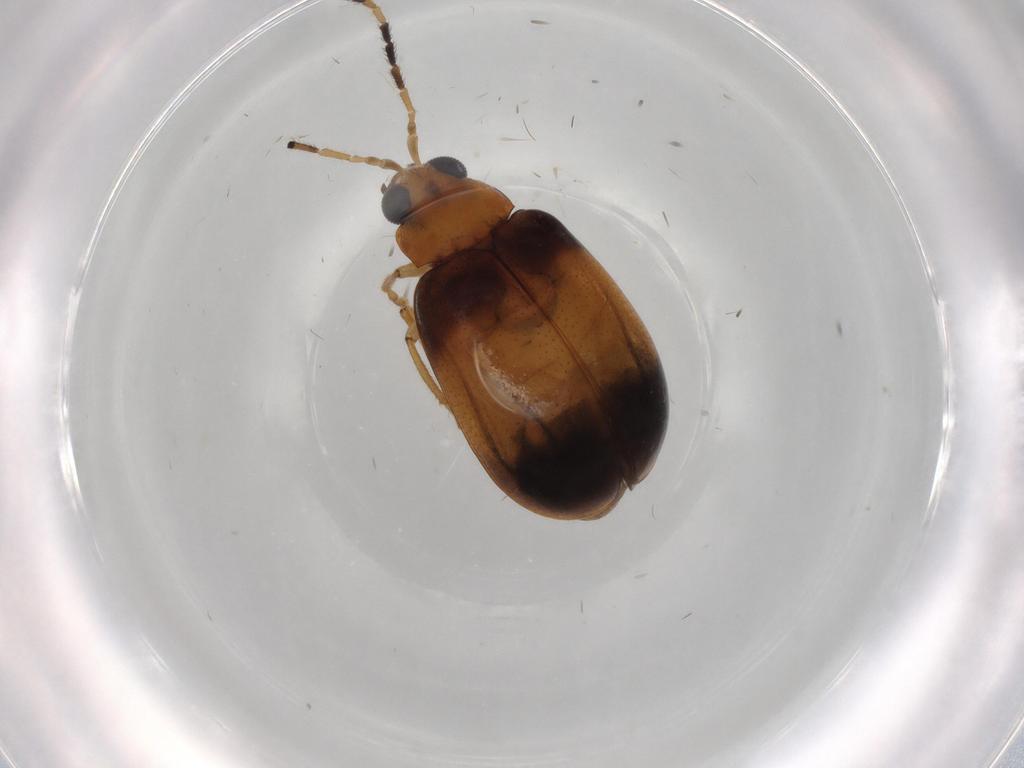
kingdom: Animalia
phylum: Arthropoda
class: Insecta
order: Coleoptera
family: Chrysomelidae
